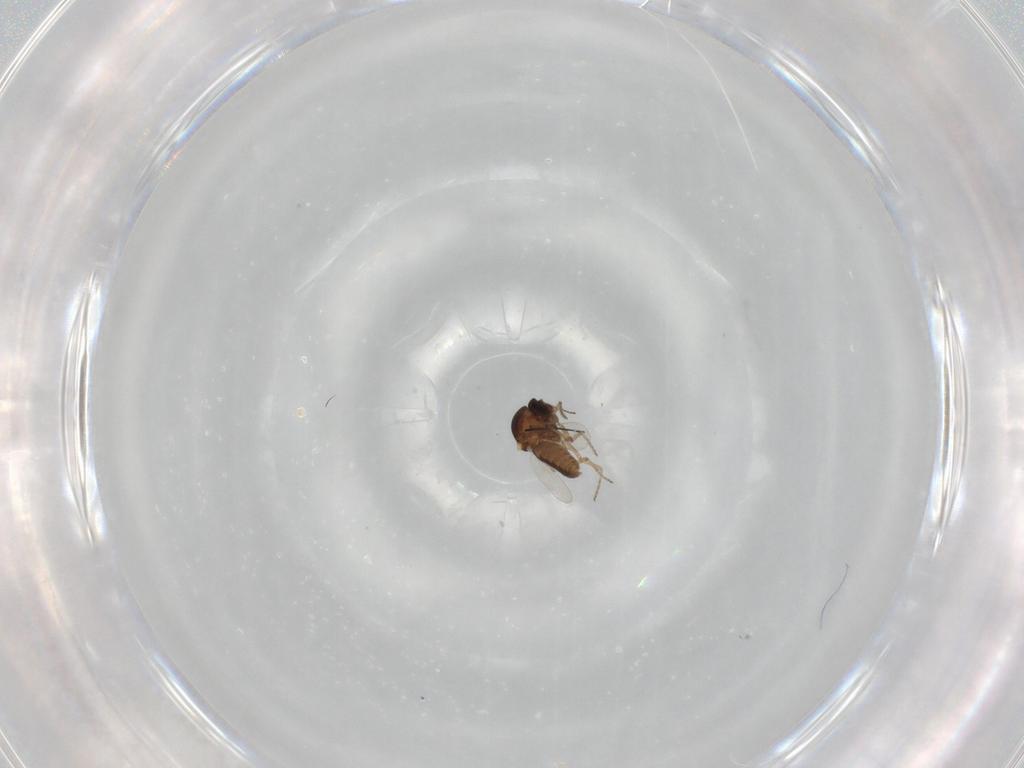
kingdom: Animalia
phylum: Arthropoda
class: Insecta
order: Diptera
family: Ceratopogonidae
